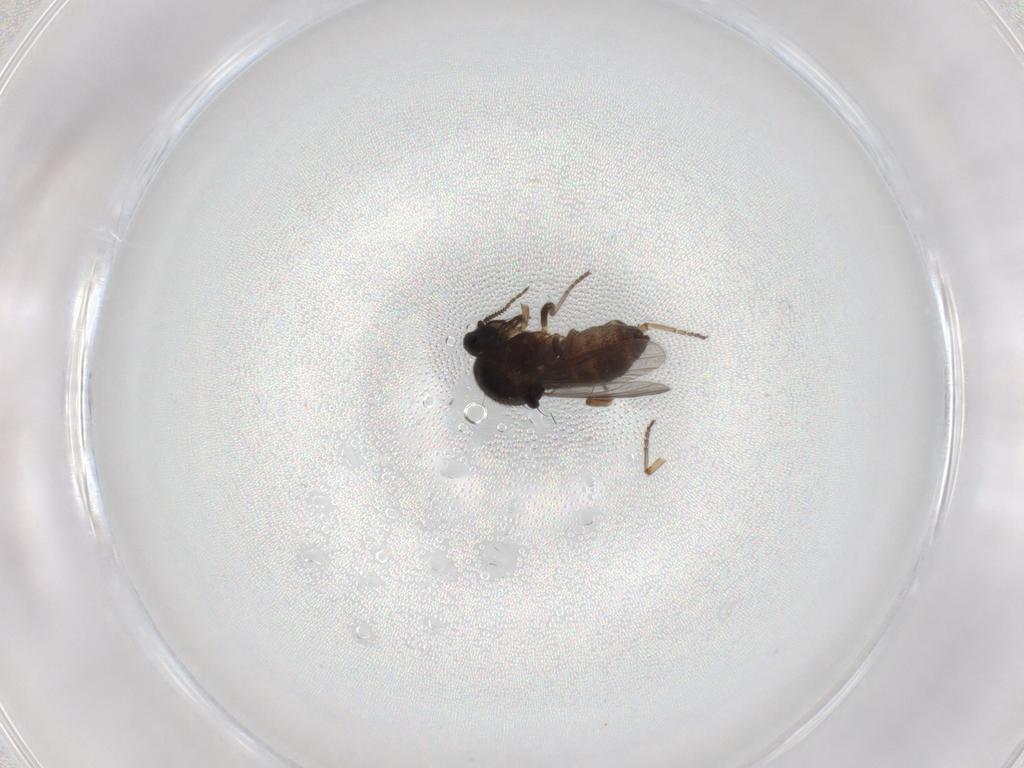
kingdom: Animalia
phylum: Arthropoda
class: Insecta
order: Diptera
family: Ceratopogonidae
